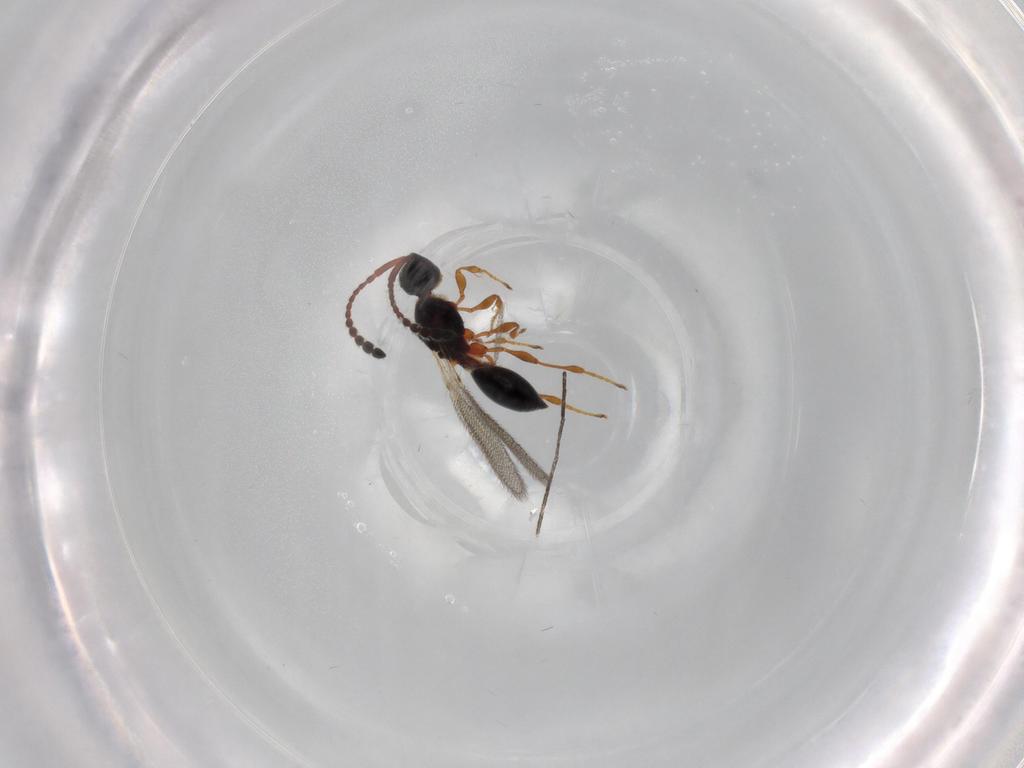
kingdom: Animalia
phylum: Arthropoda
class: Insecta
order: Hymenoptera
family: Diapriidae
